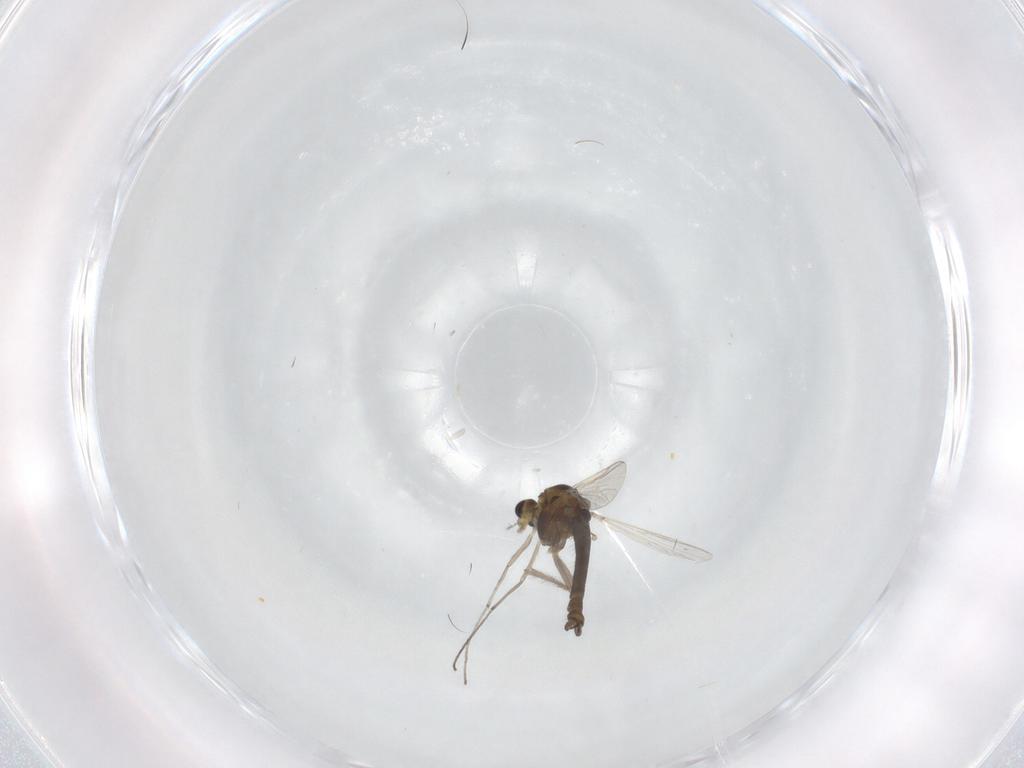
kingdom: Animalia
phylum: Arthropoda
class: Insecta
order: Diptera
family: Chironomidae
